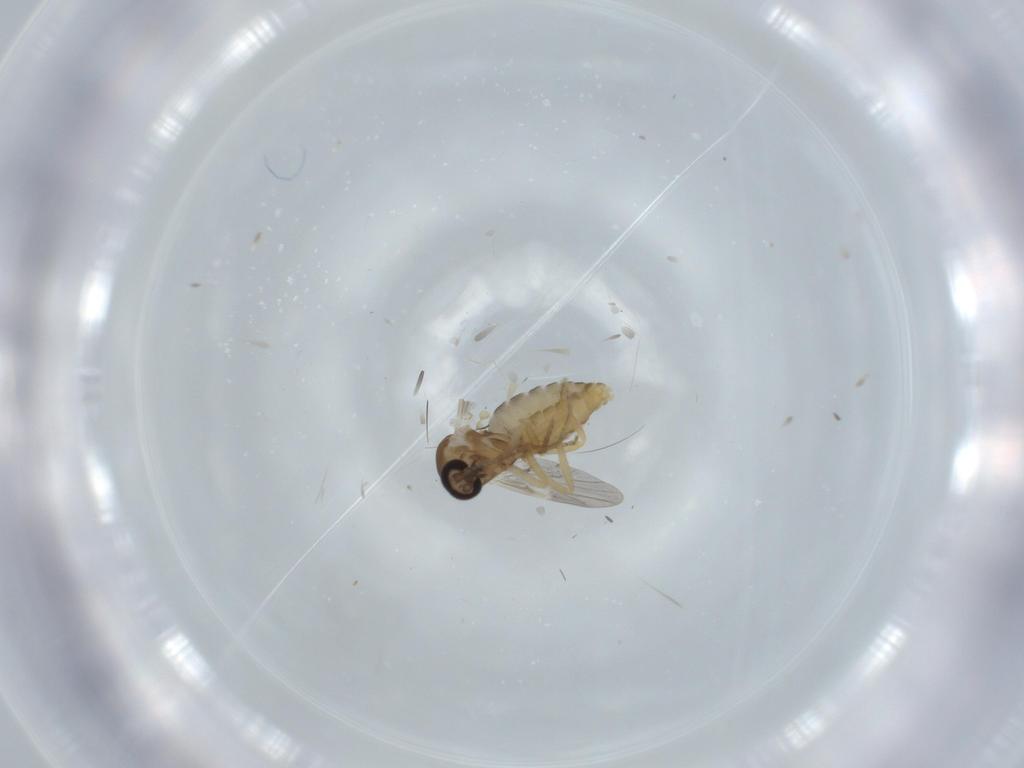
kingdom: Animalia
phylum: Arthropoda
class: Insecta
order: Diptera
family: Ceratopogonidae
